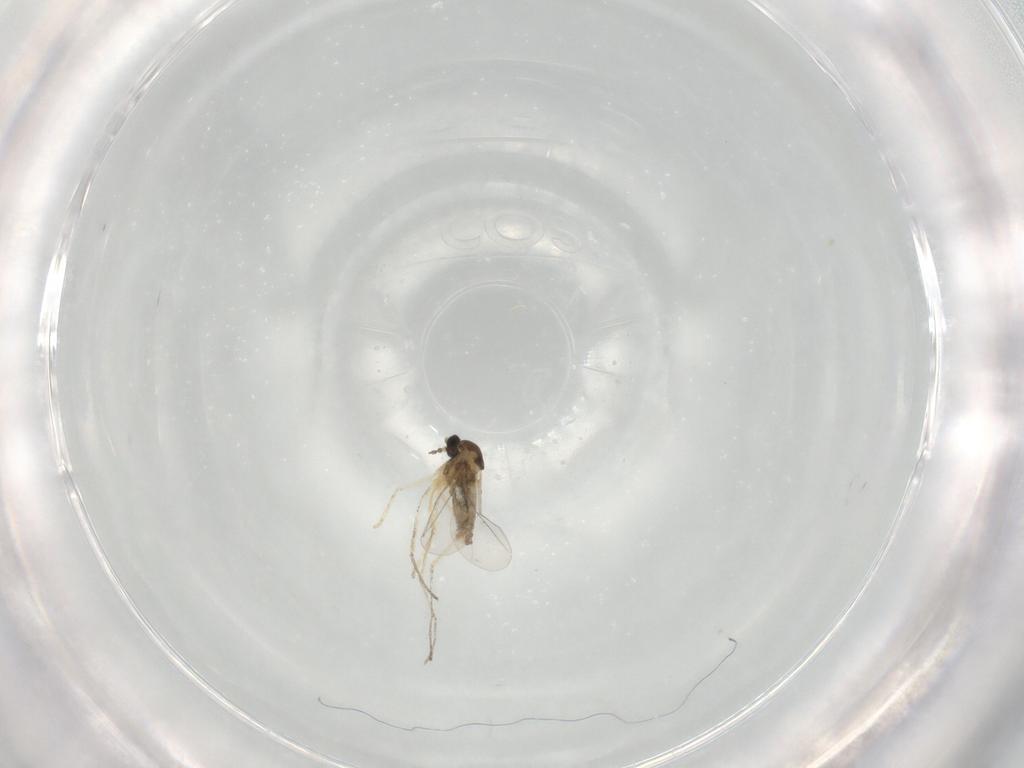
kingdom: Animalia
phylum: Arthropoda
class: Insecta
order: Diptera
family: Cecidomyiidae
